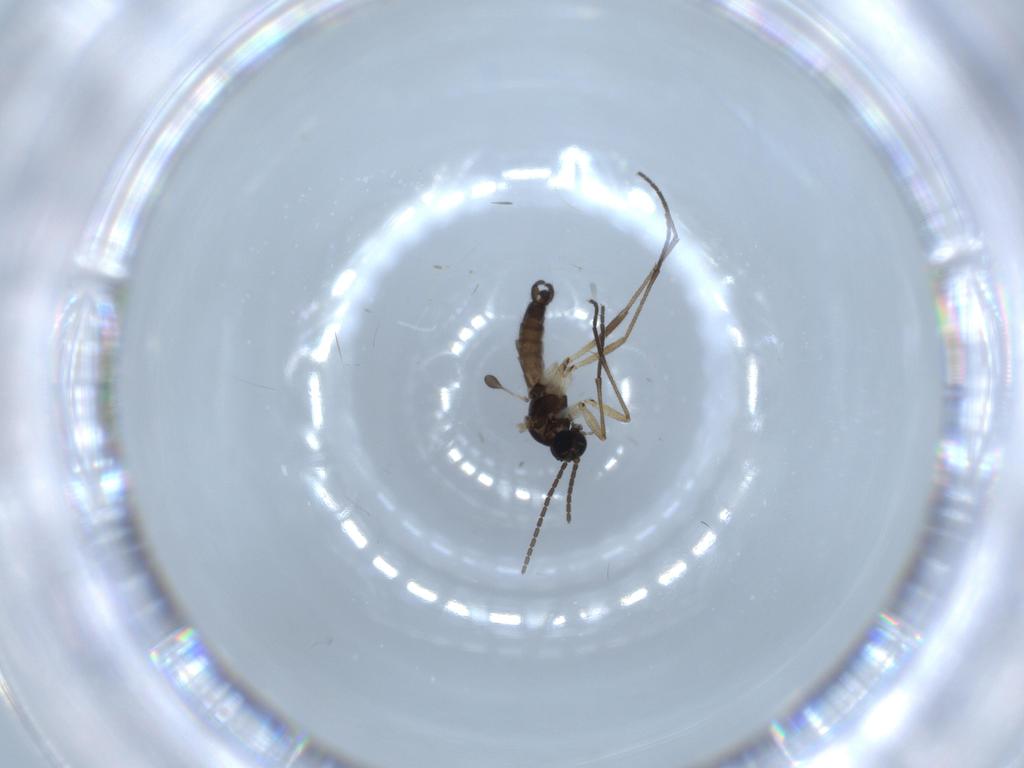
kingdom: Animalia
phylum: Arthropoda
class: Insecta
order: Diptera
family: Sciaridae
